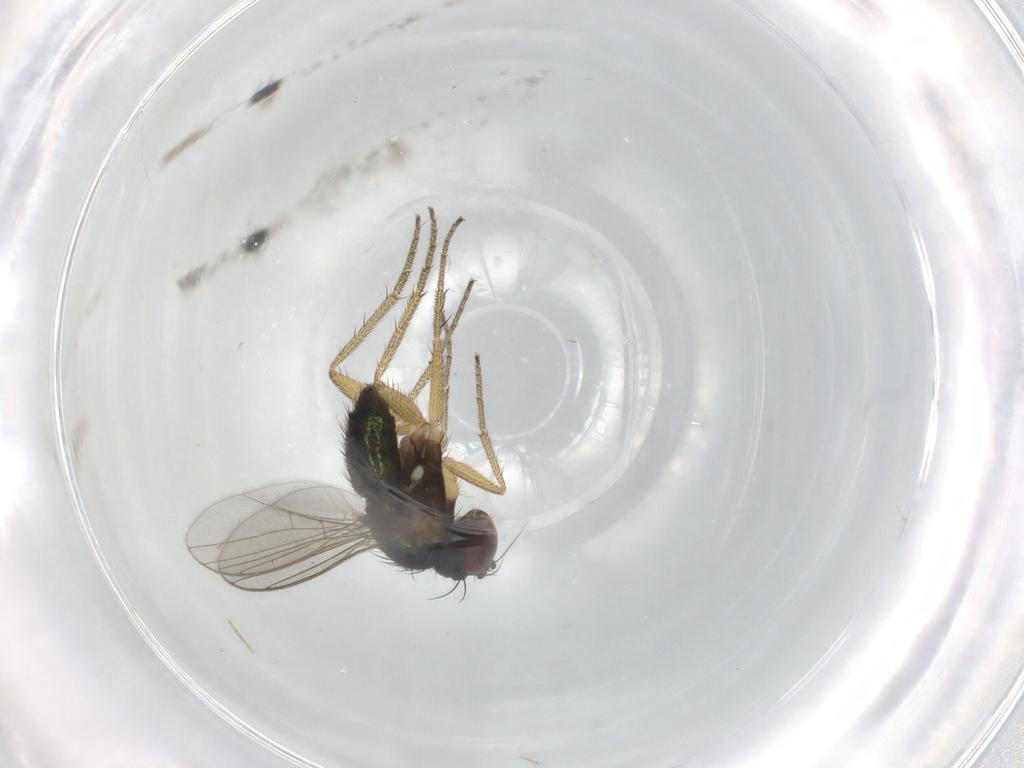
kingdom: Animalia
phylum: Arthropoda
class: Insecta
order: Diptera
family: Dolichopodidae
